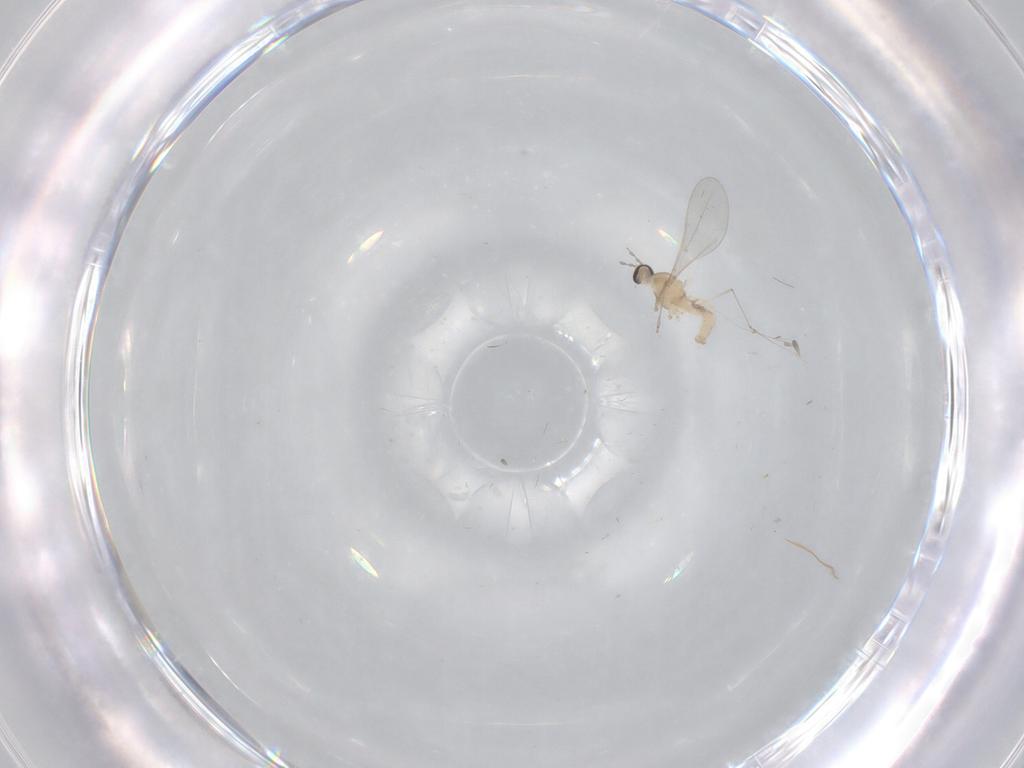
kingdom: Animalia
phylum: Arthropoda
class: Insecta
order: Diptera
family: Cecidomyiidae
